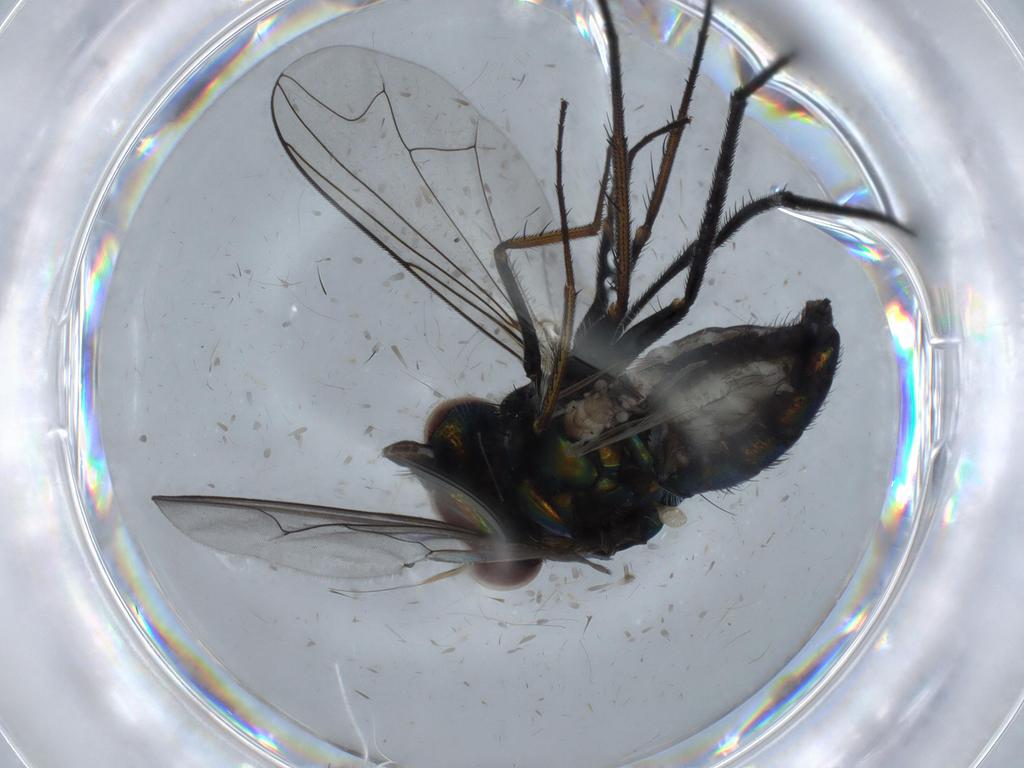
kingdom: Animalia
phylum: Arthropoda
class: Insecta
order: Diptera
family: Dolichopodidae
